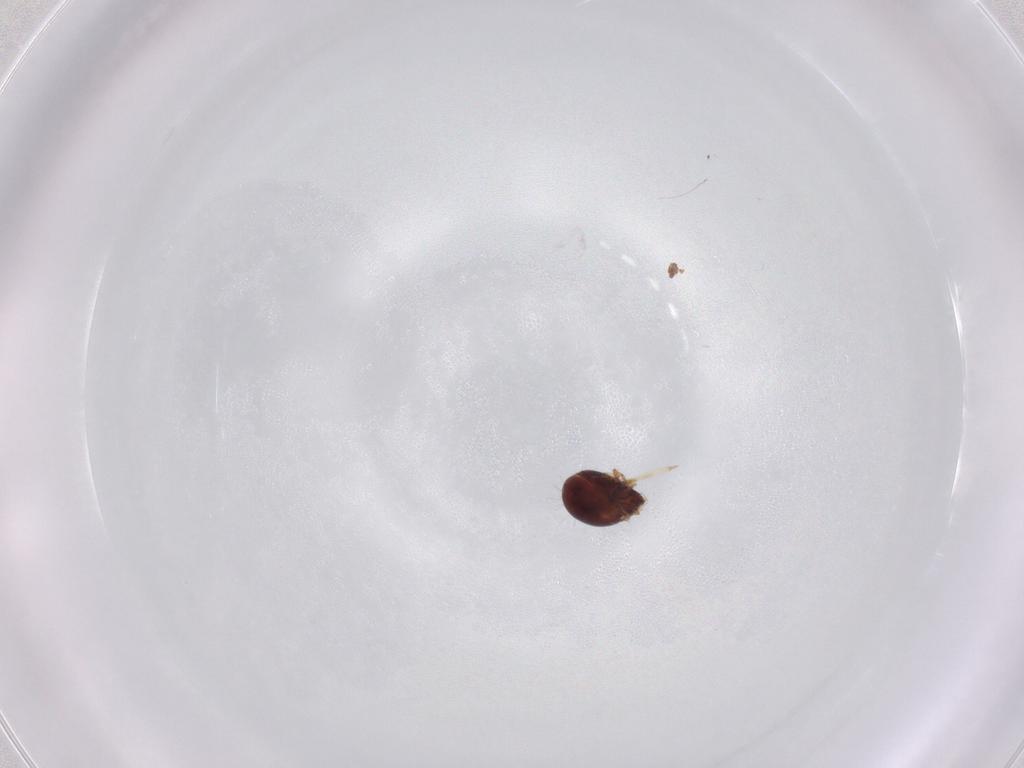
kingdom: Animalia
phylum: Arthropoda
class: Arachnida
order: Sarcoptiformes
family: Humerobatidae
